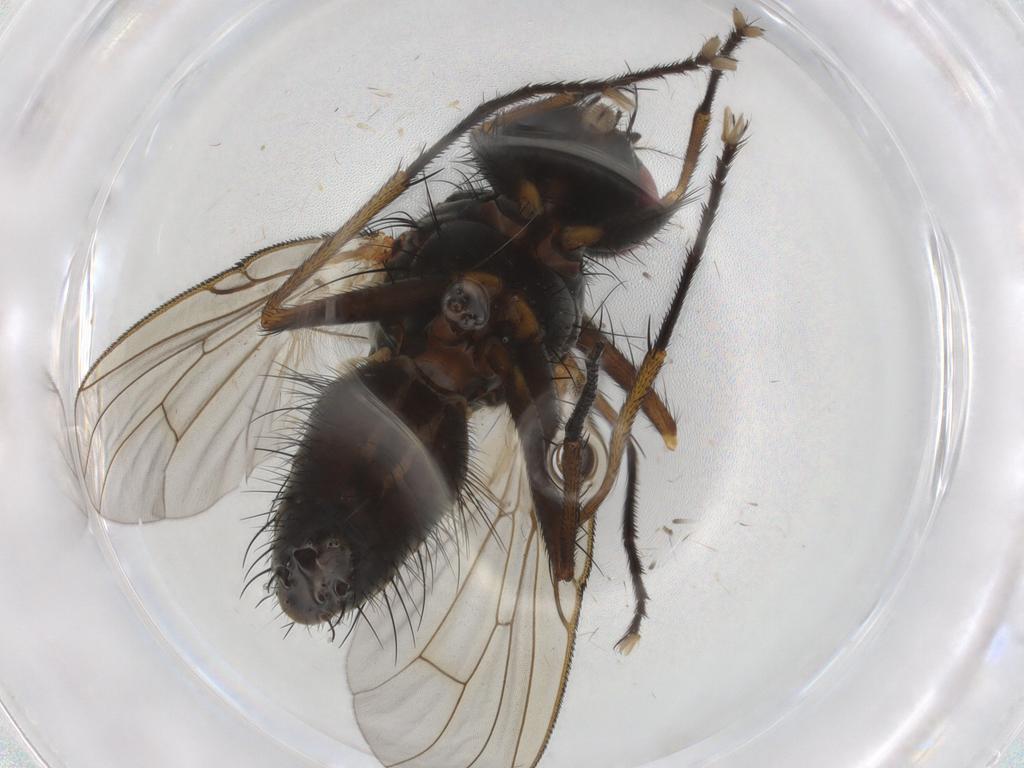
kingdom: Animalia
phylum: Arthropoda
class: Insecta
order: Diptera
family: Muscidae
